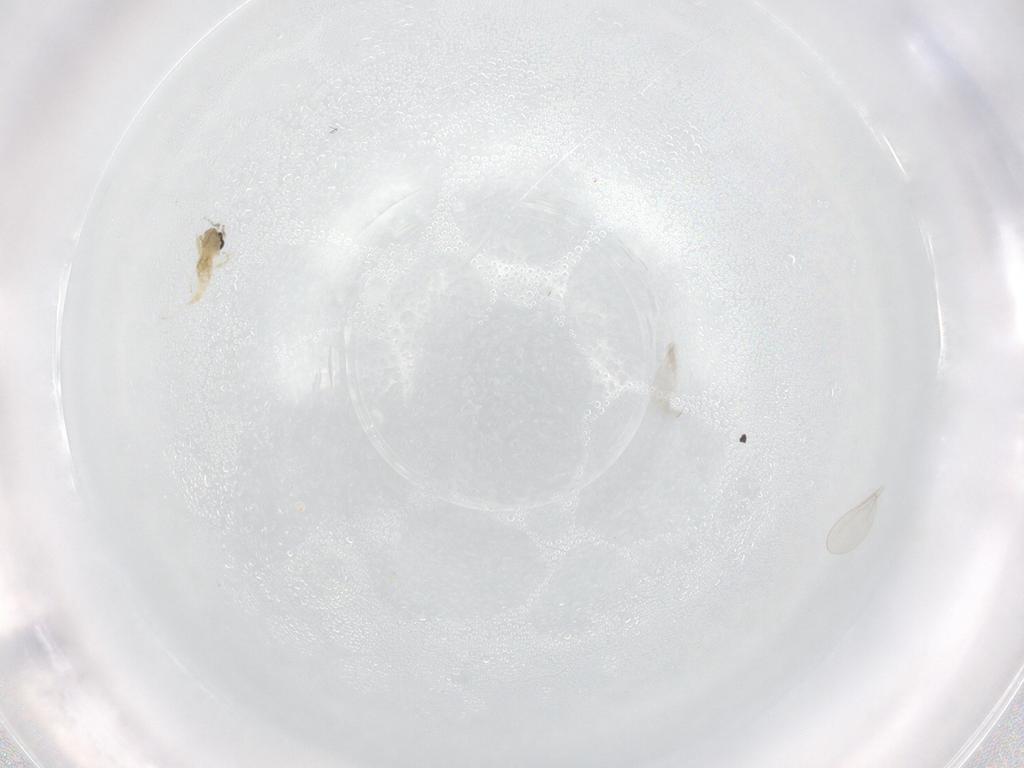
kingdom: Animalia
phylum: Arthropoda
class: Insecta
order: Diptera
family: Cecidomyiidae
